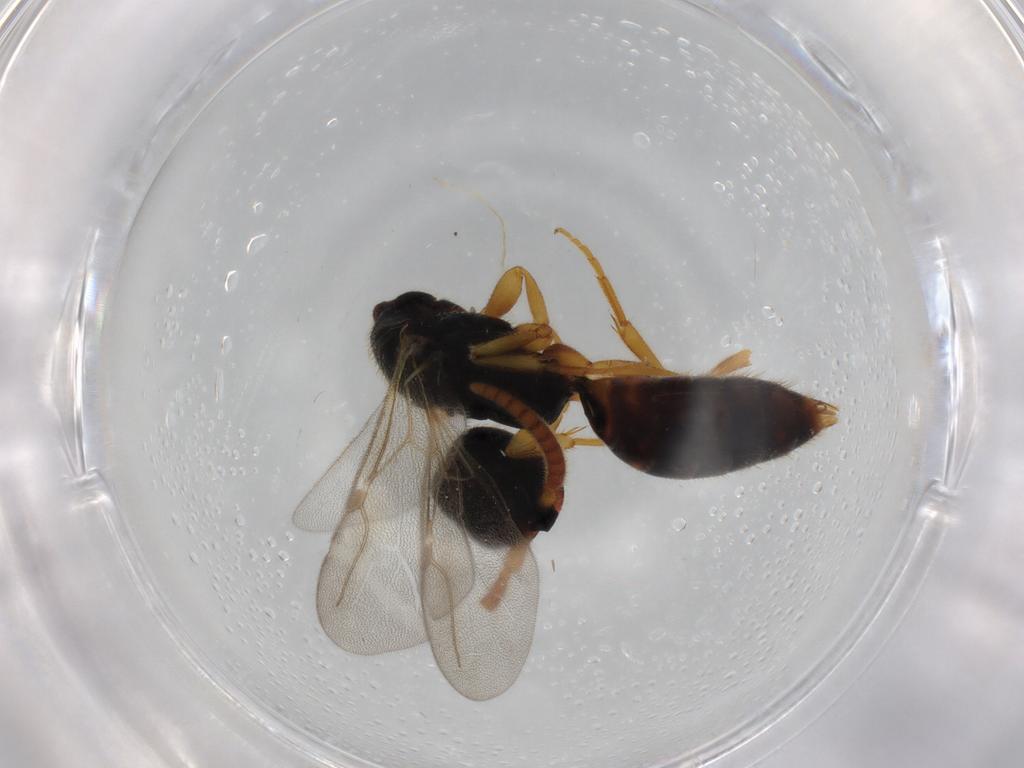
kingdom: Animalia
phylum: Arthropoda
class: Insecta
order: Hymenoptera
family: Bethylidae
